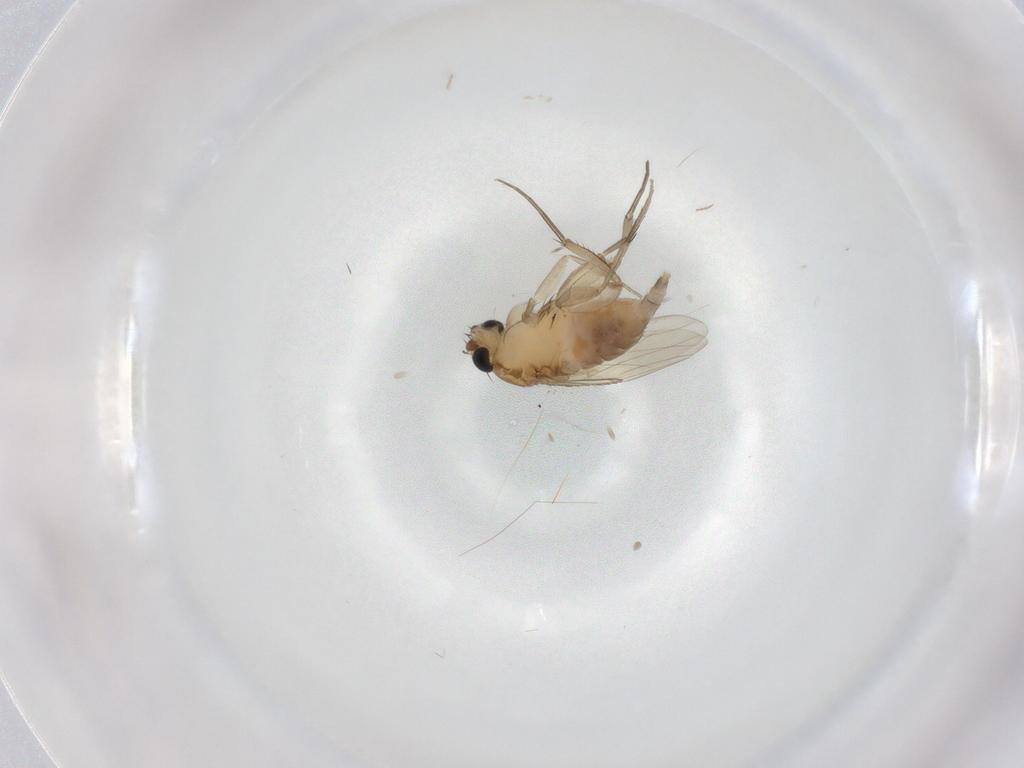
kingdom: Animalia
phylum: Arthropoda
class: Insecta
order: Diptera
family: Phoridae
